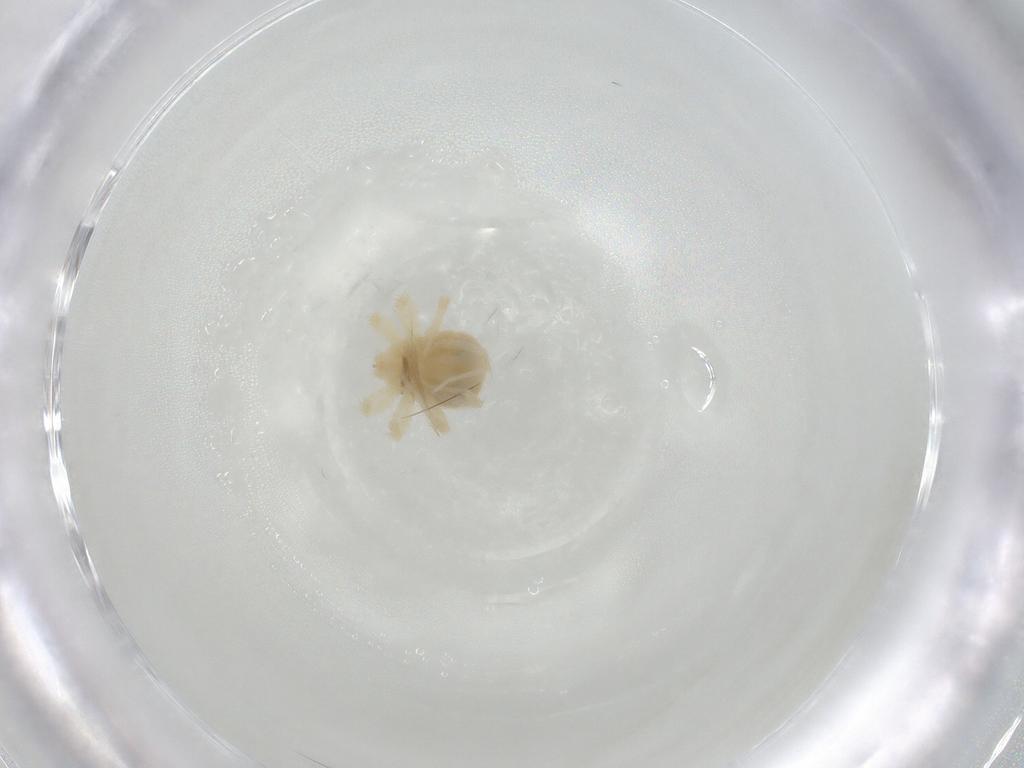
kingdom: Animalia
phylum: Arthropoda
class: Arachnida
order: Trombidiformes
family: Anystidae
